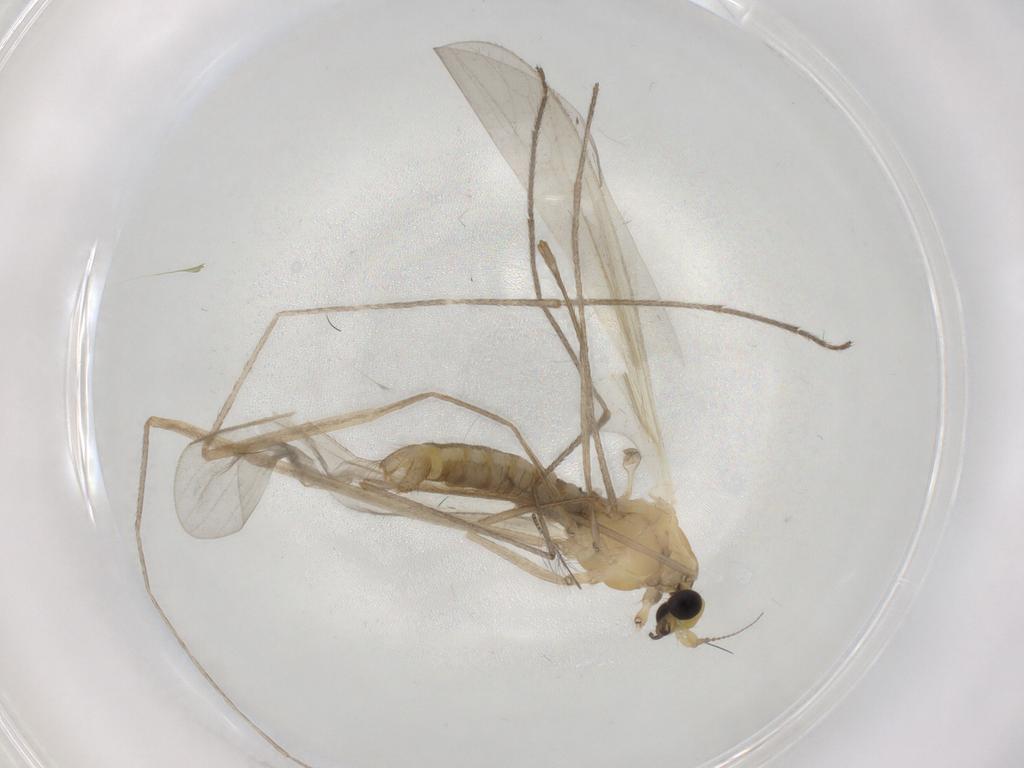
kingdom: Animalia
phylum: Arthropoda
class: Insecta
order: Diptera
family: Limoniidae
